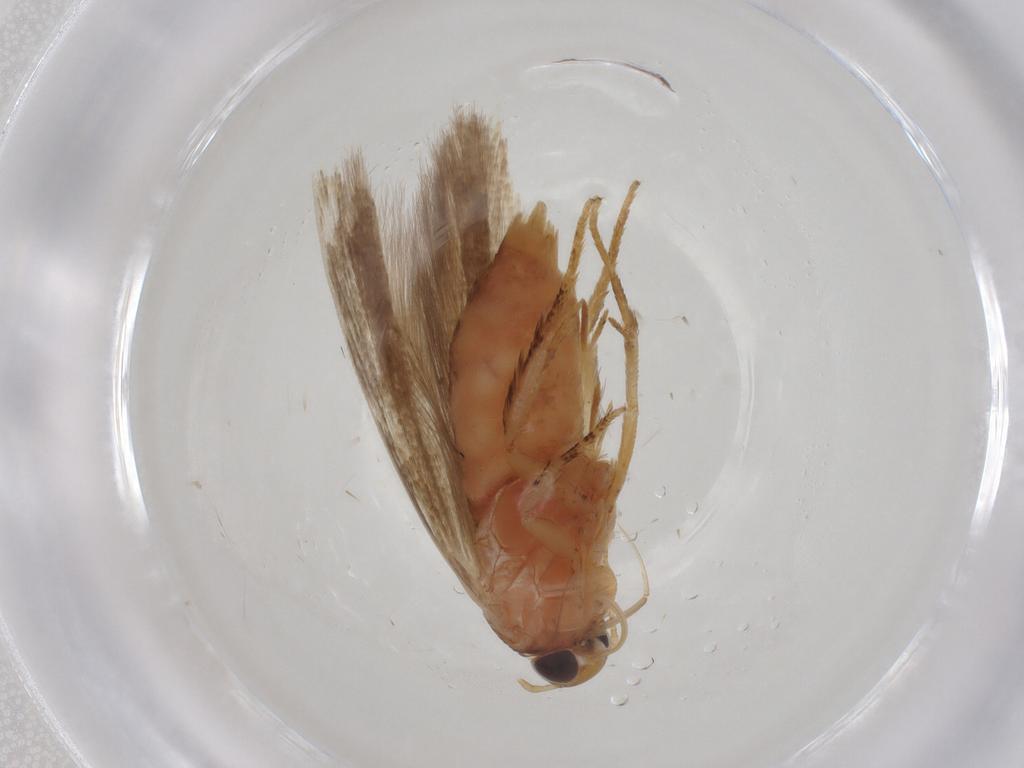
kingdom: Animalia
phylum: Arthropoda
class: Insecta
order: Lepidoptera
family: Gelechiidae
